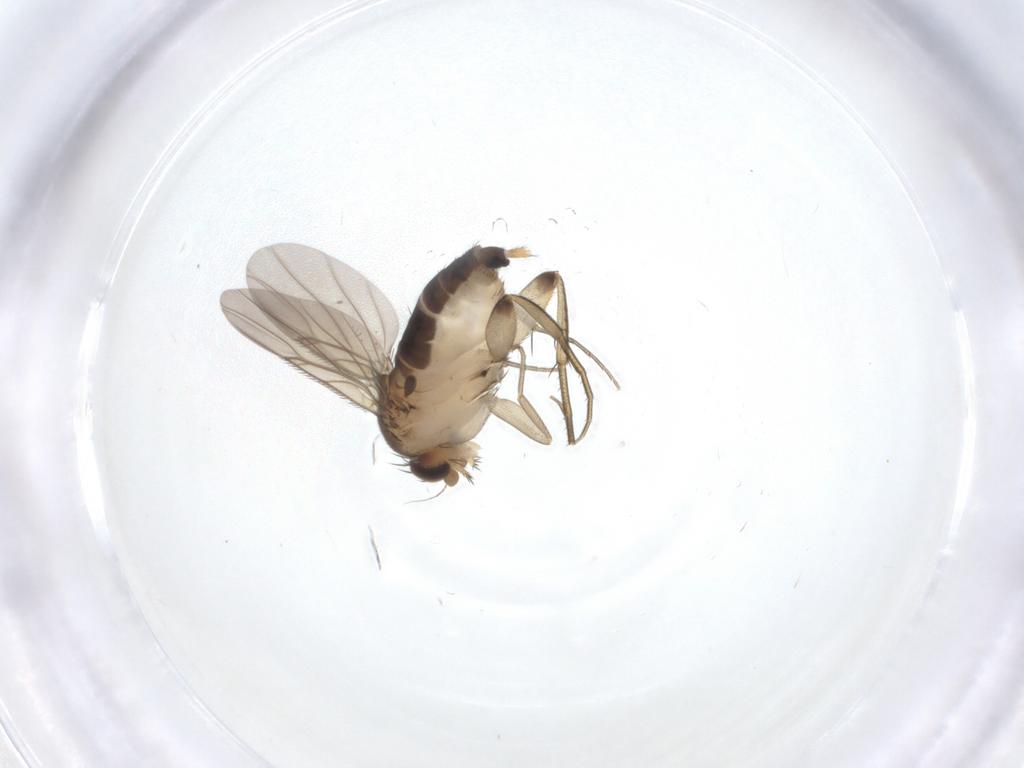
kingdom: Animalia
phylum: Arthropoda
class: Insecta
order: Diptera
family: Phoridae
